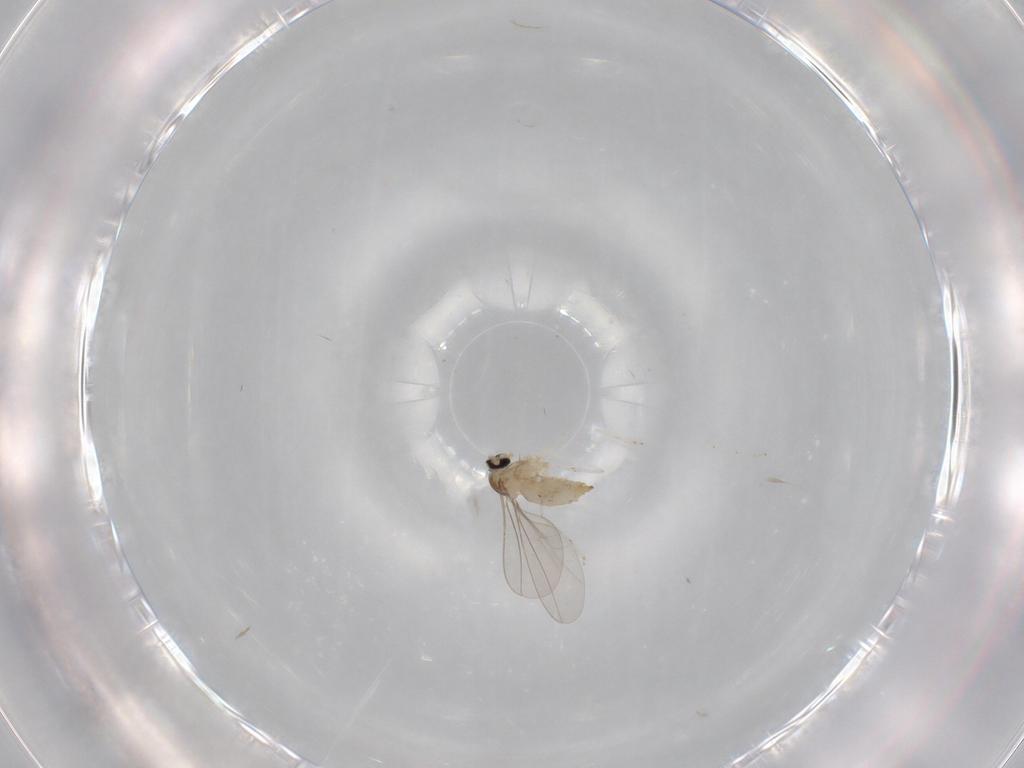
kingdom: Animalia
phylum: Arthropoda
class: Insecta
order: Diptera
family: Cecidomyiidae
